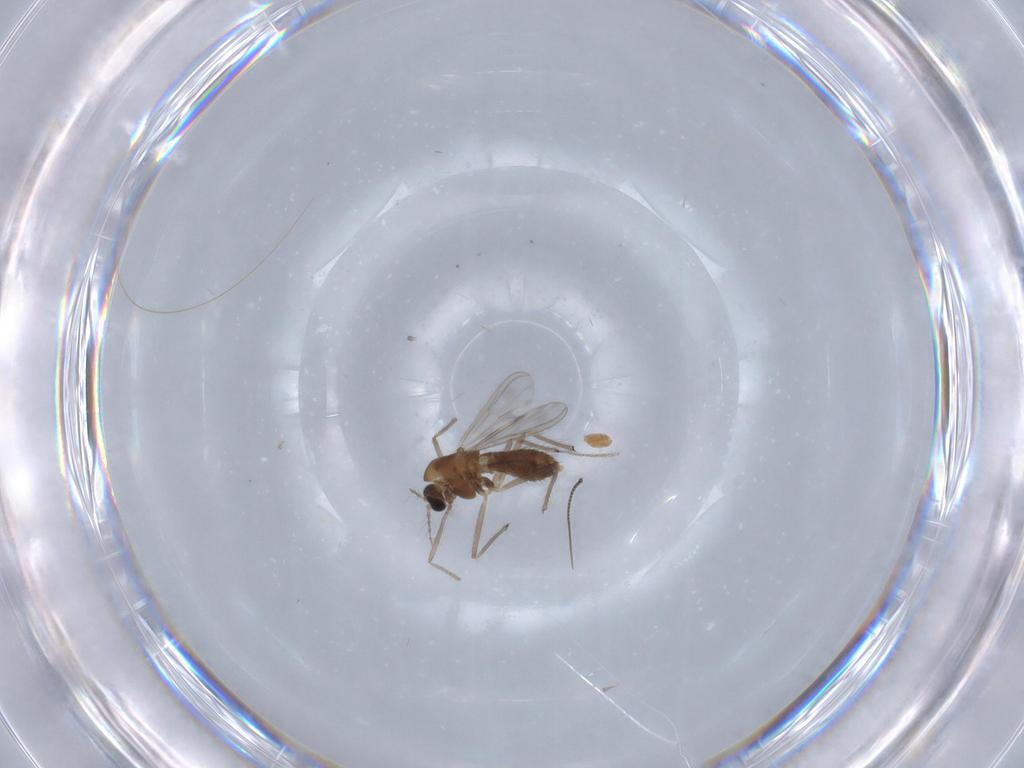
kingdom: Animalia
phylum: Arthropoda
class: Insecta
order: Diptera
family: Chironomidae
